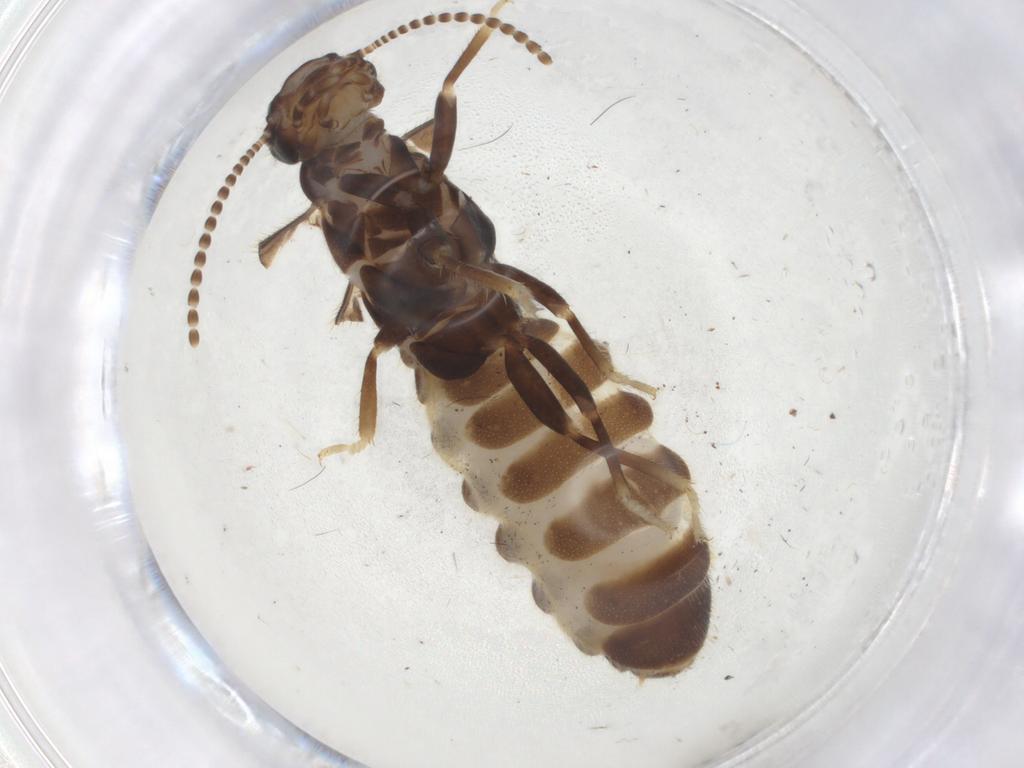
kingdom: Animalia
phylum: Arthropoda
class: Insecta
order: Blattodea
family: Rhinotermitidae
